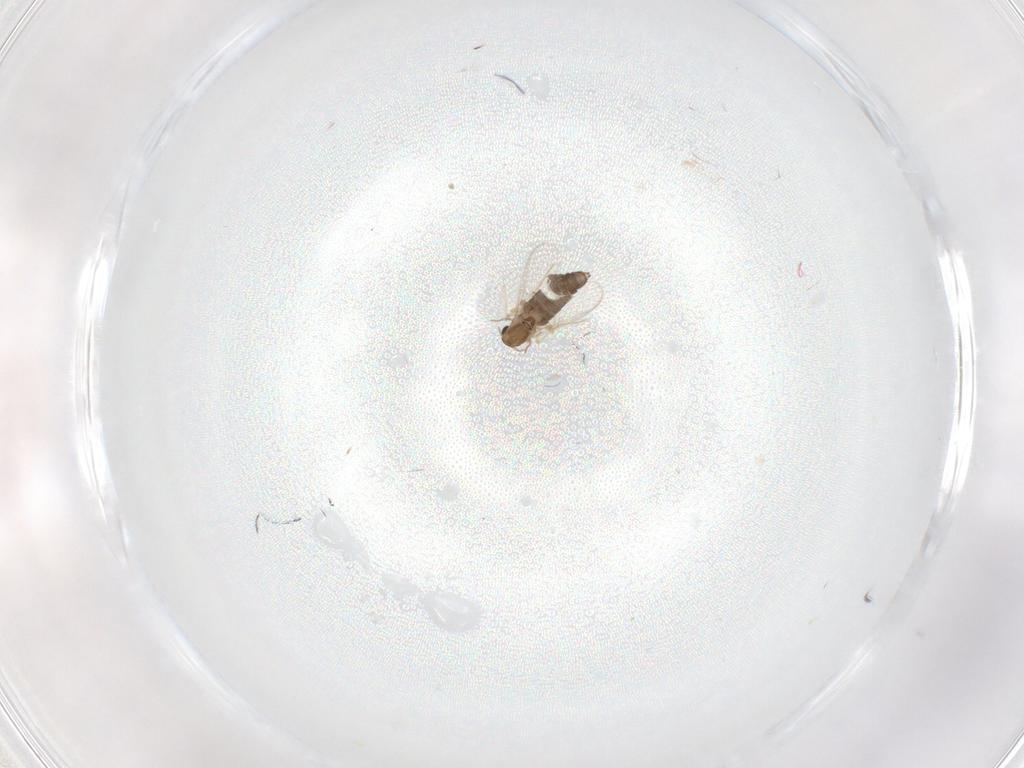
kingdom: Animalia
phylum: Arthropoda
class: Insecta
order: Diptera
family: Chironomidae
